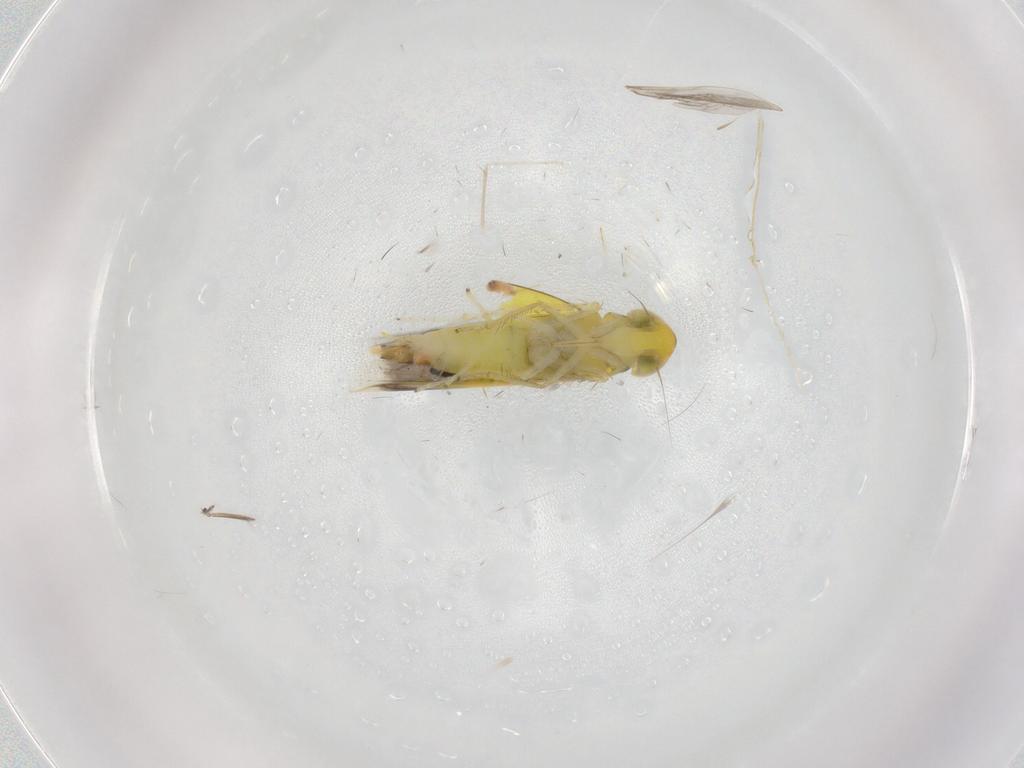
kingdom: Animalia
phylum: Arthropoda
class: Insecta
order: Hemiptera
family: Cicadellidae
